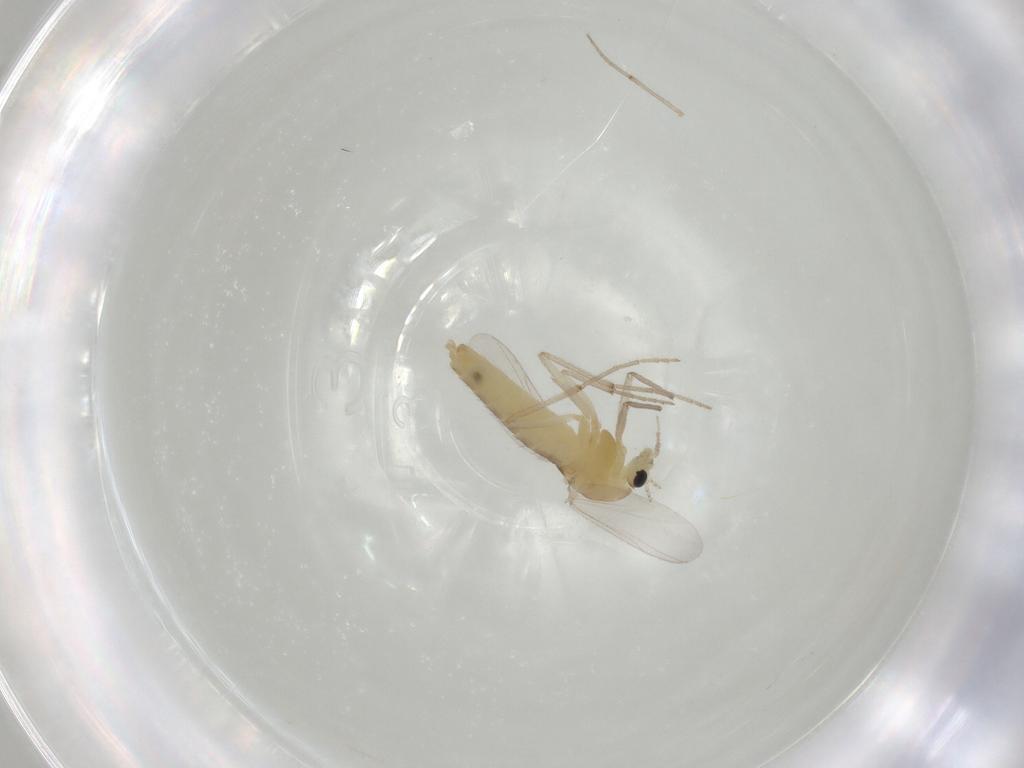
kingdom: Animalia
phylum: Arthropoda
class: Insecta
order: Diptera
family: Chironomidae
